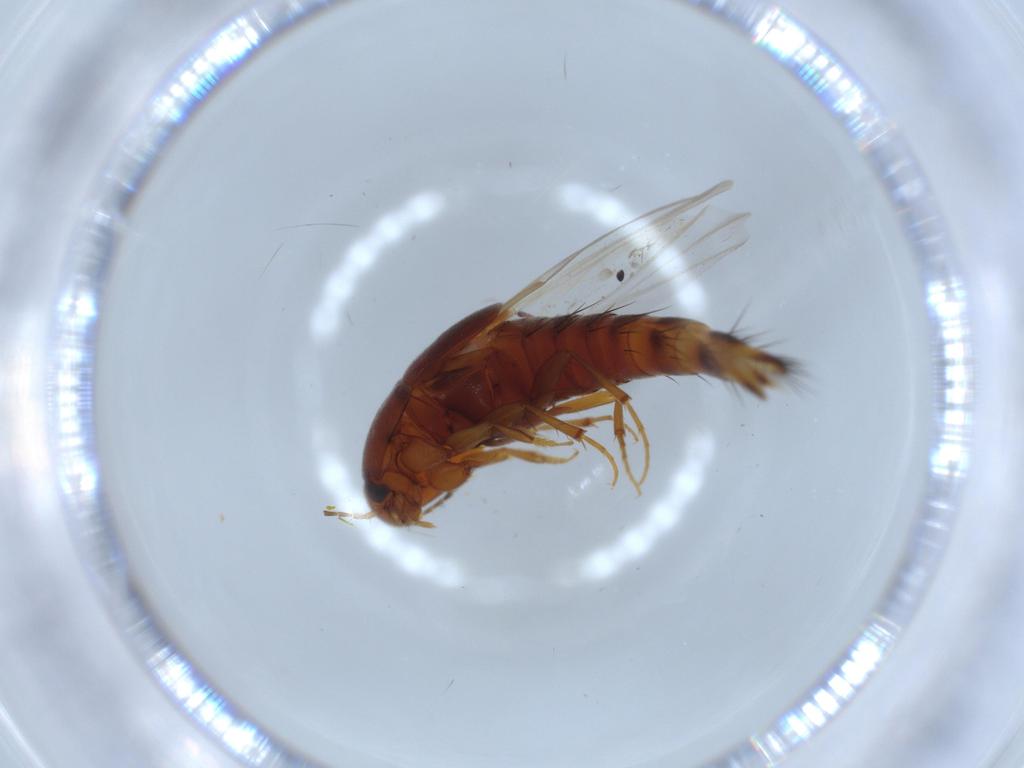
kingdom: Animalia
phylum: Arthropoda
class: Insecta
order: Coleoptera
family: Staphylinidae
